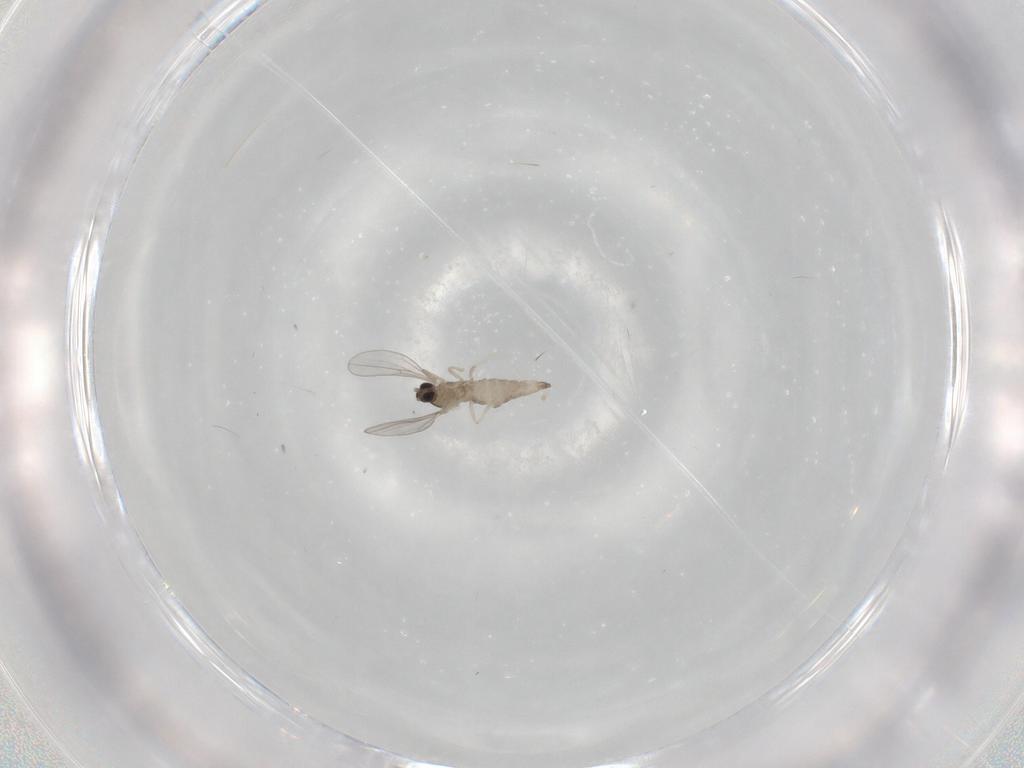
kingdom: Animalia
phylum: Arthropoda
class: Insecta
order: Diptera
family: Cecidomyiidae
